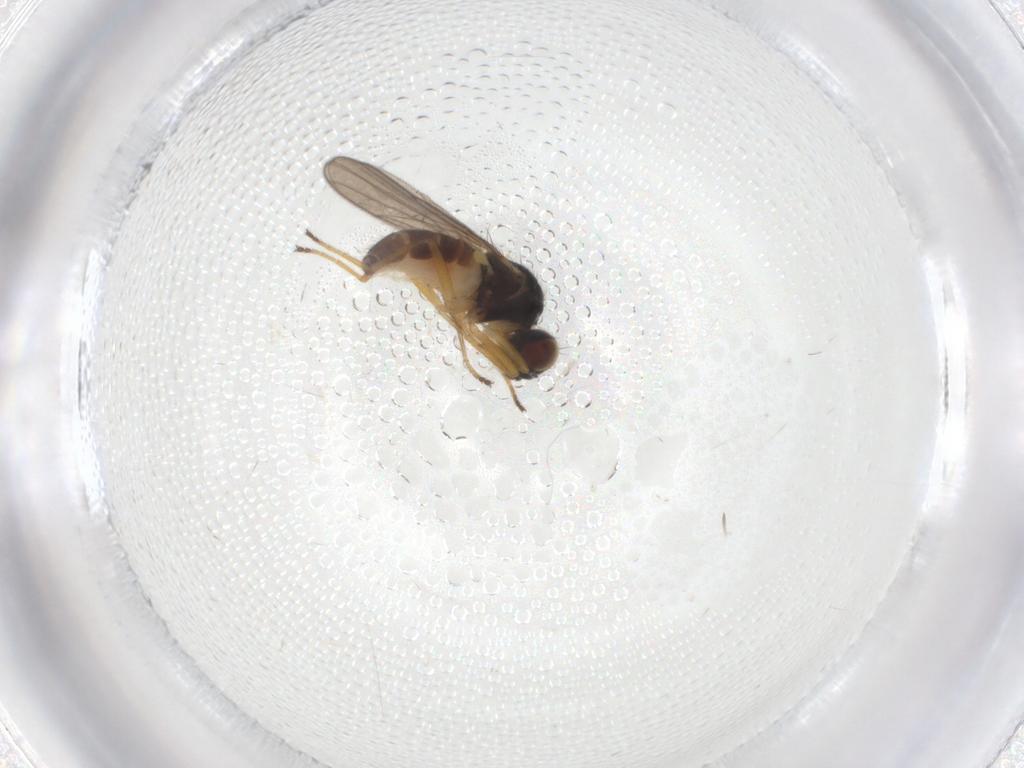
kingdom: Animalia
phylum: Arthropoda
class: Insecta
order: Diptera
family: Chloropidae
